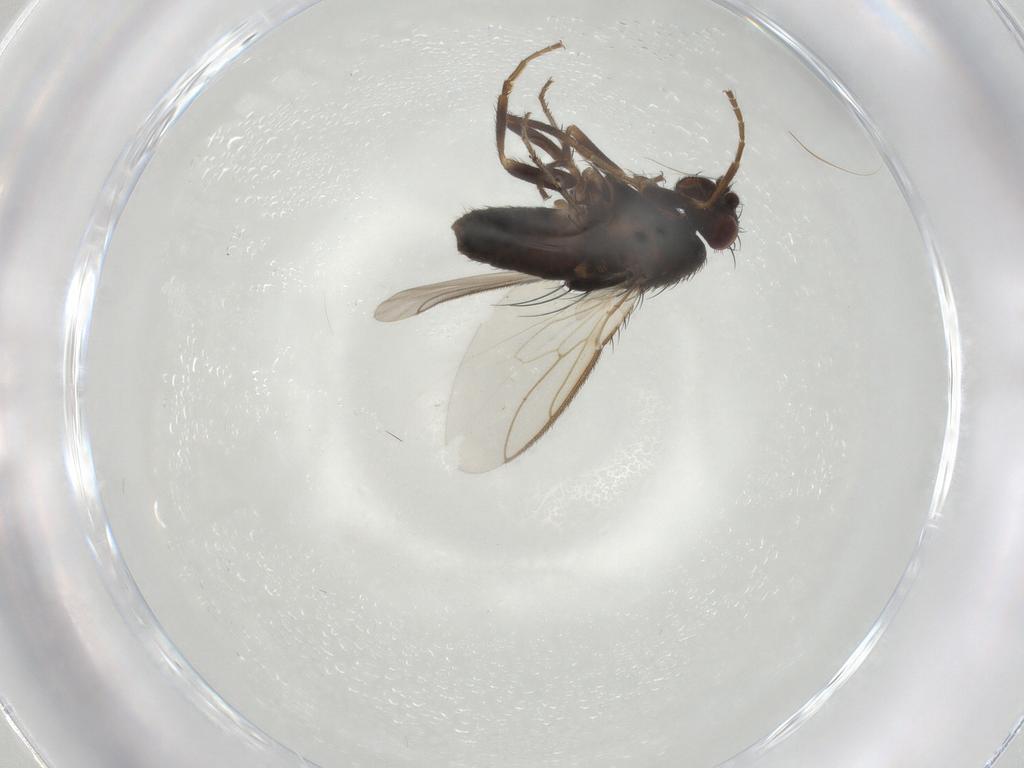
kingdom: Animalia
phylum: Arthropoda
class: Insecta
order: Diptera
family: Sphaeroceridae
